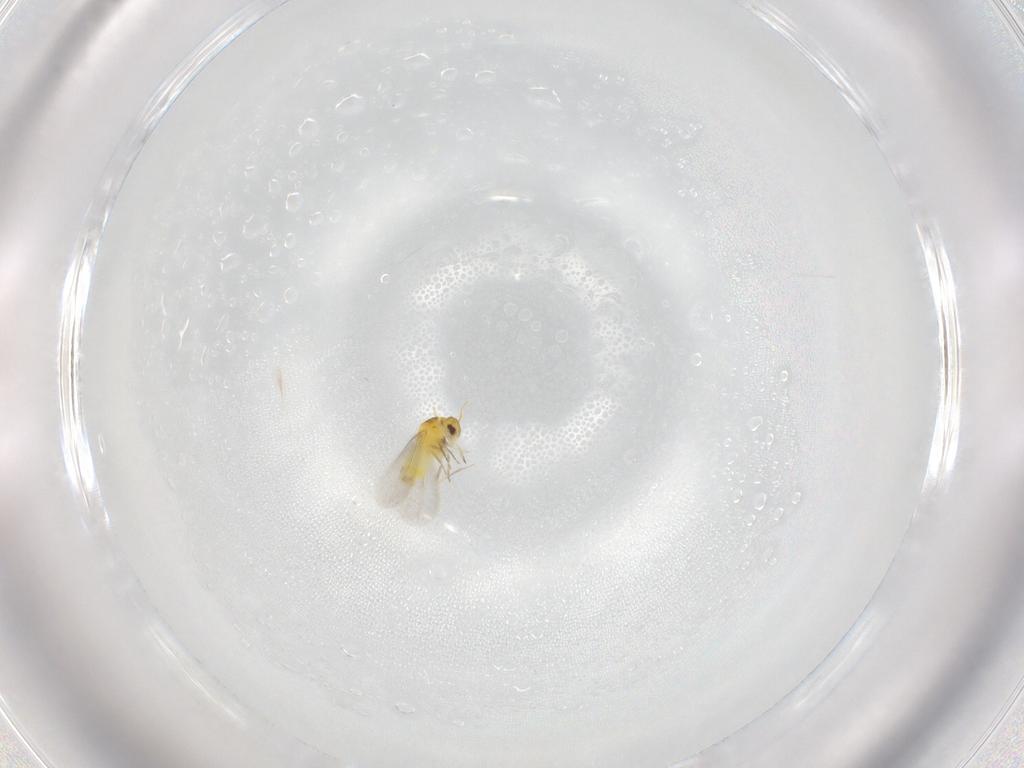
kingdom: Animalia
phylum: Arthropoda
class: Insecta
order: Hemiptera
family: Aleyrodidae
